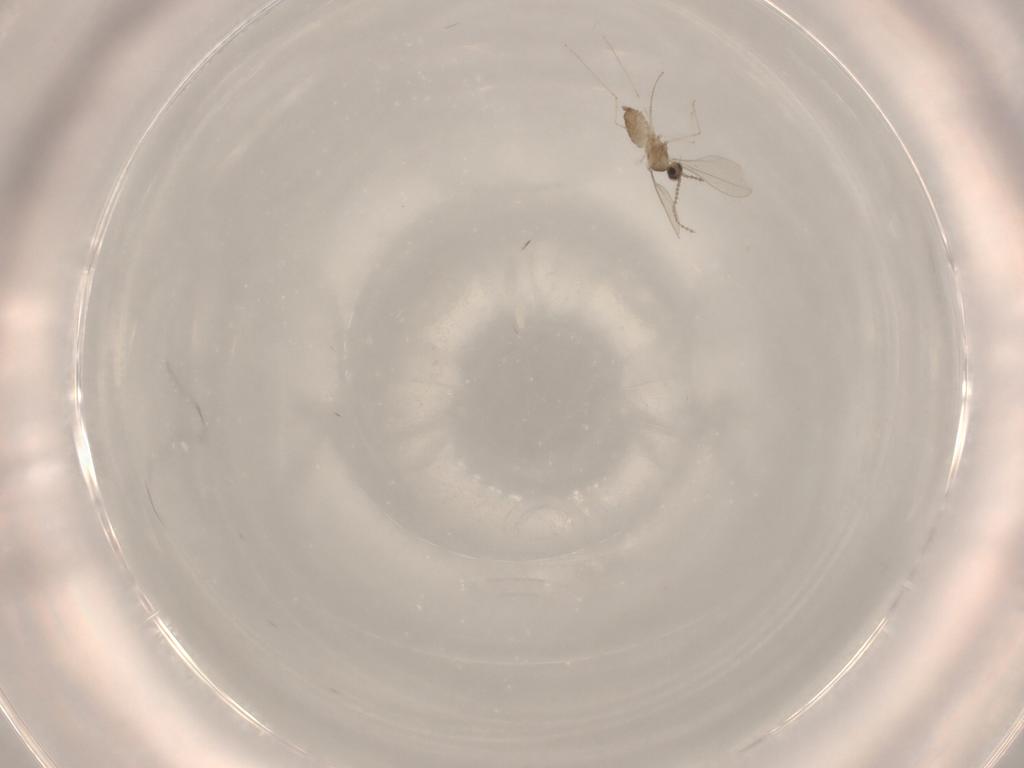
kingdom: Animalia
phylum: Arthropoda
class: Insecta
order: Diptera
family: Cecidomyiidae
